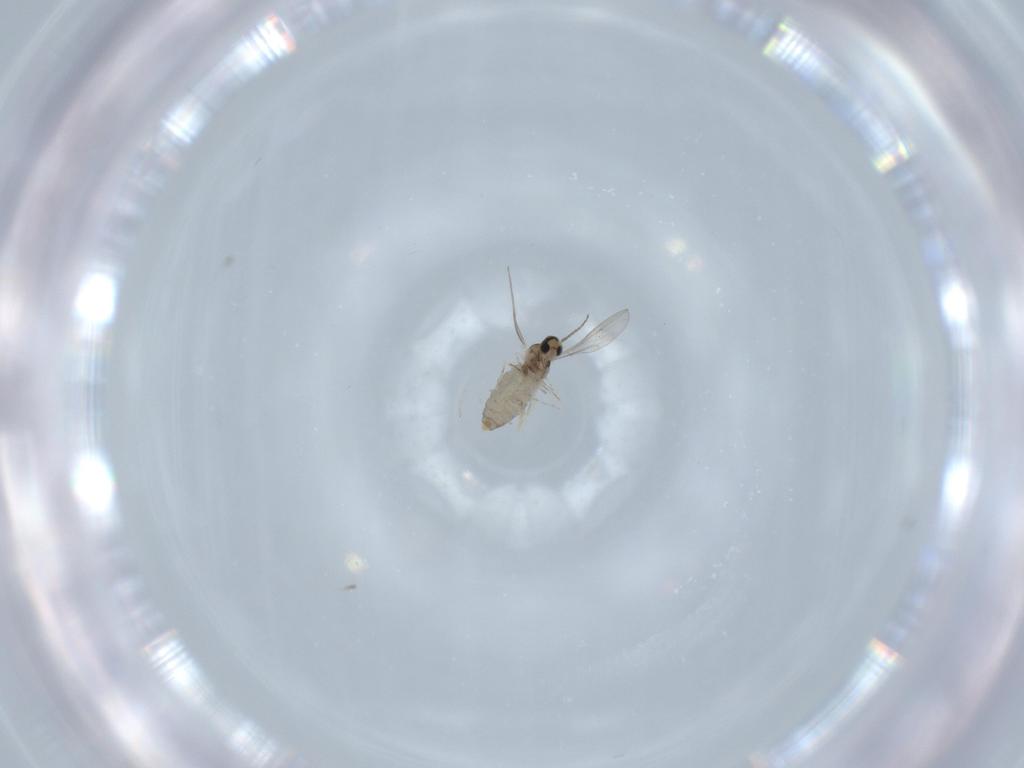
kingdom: Animalia
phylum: Arthropoda
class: Insecta
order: Diptera
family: Cecidomyiidae
